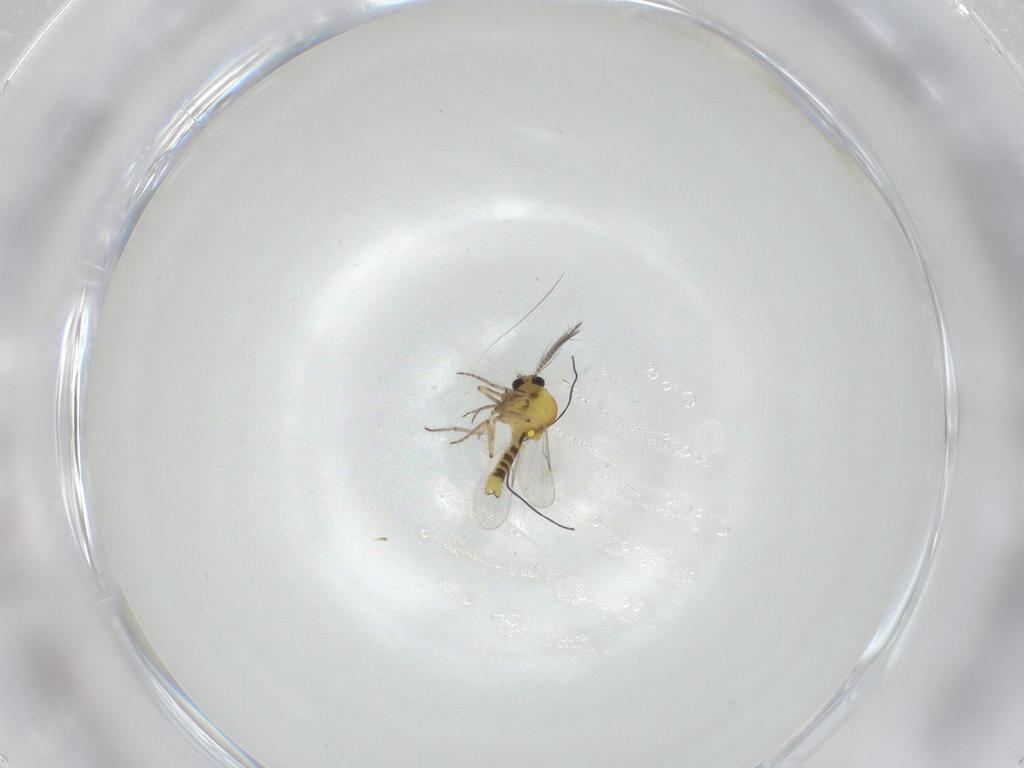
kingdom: Animalia
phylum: Arthropoda
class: Insecta
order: Diptera
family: Ceratopogonidae
